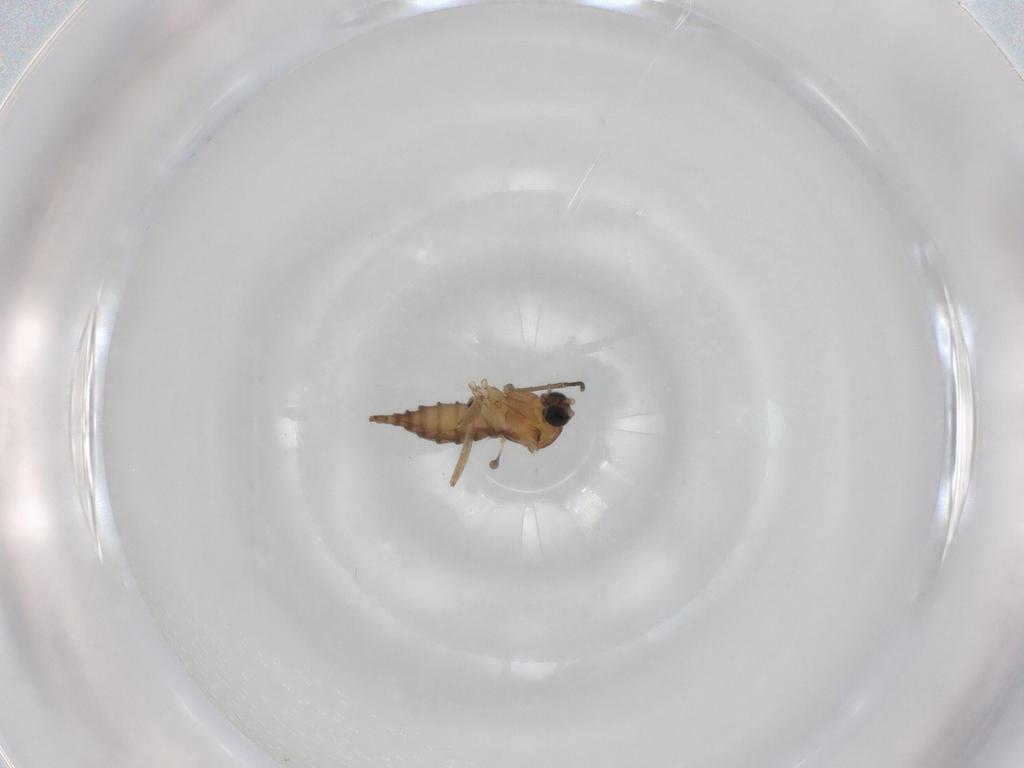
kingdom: Animalia
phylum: Arthropoda
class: Insecta
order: Diptera
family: Sciaridae
